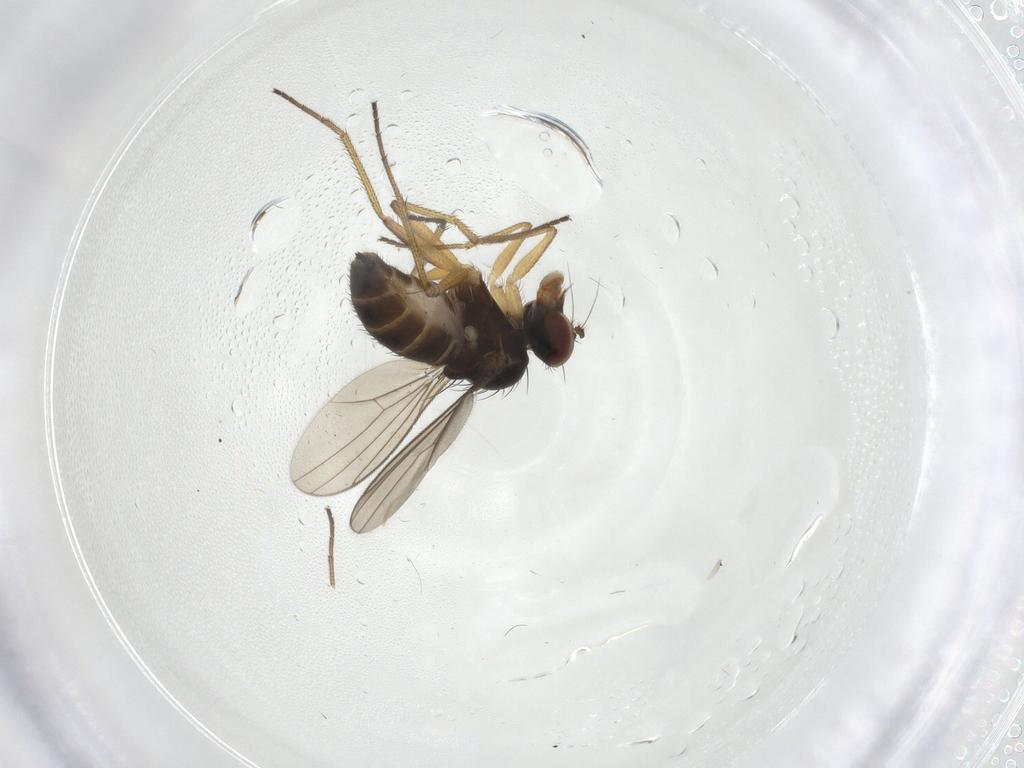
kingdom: Animalia
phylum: Arthropoda
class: Insecta
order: Diptera
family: Dolichopodidae
